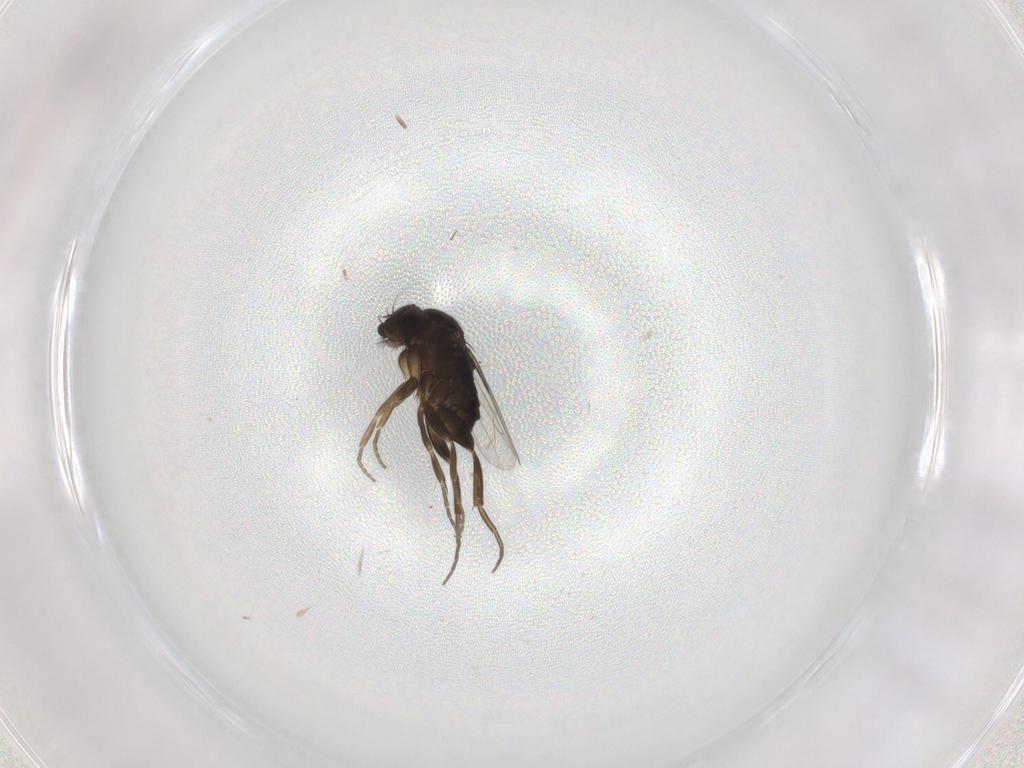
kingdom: Animalia
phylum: Arthropoda
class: Insecta
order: Diptera
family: Phoridae
